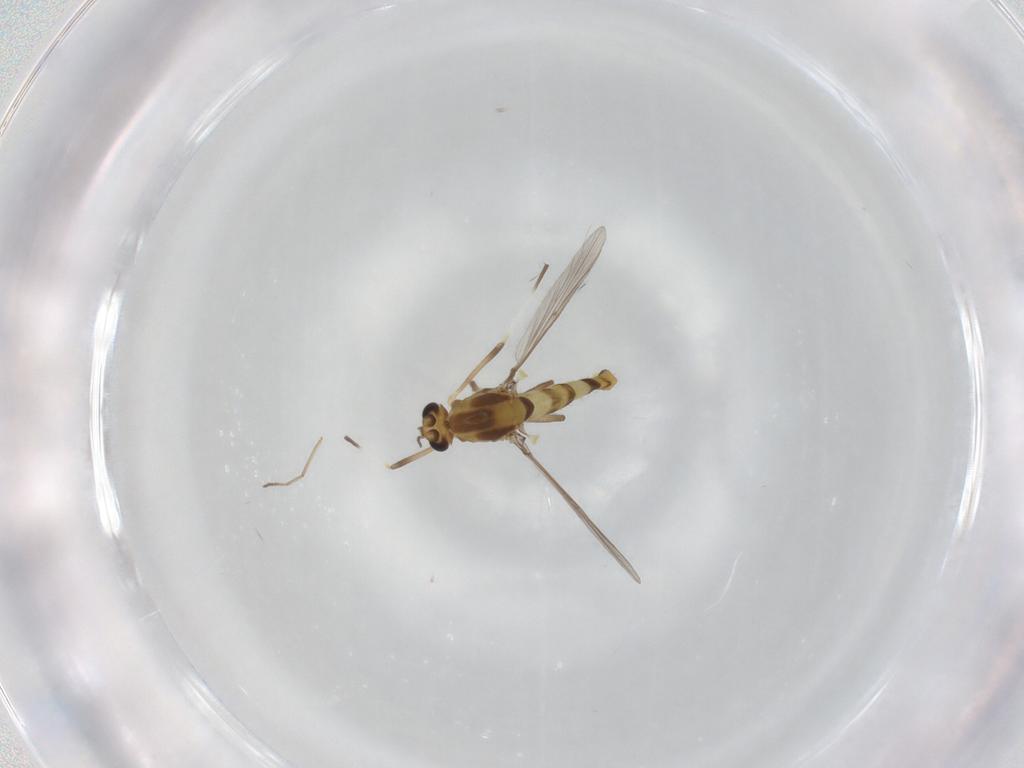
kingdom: Animalia
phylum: Arthropoda
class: Insecta
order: Diptera
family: Chironomidae
